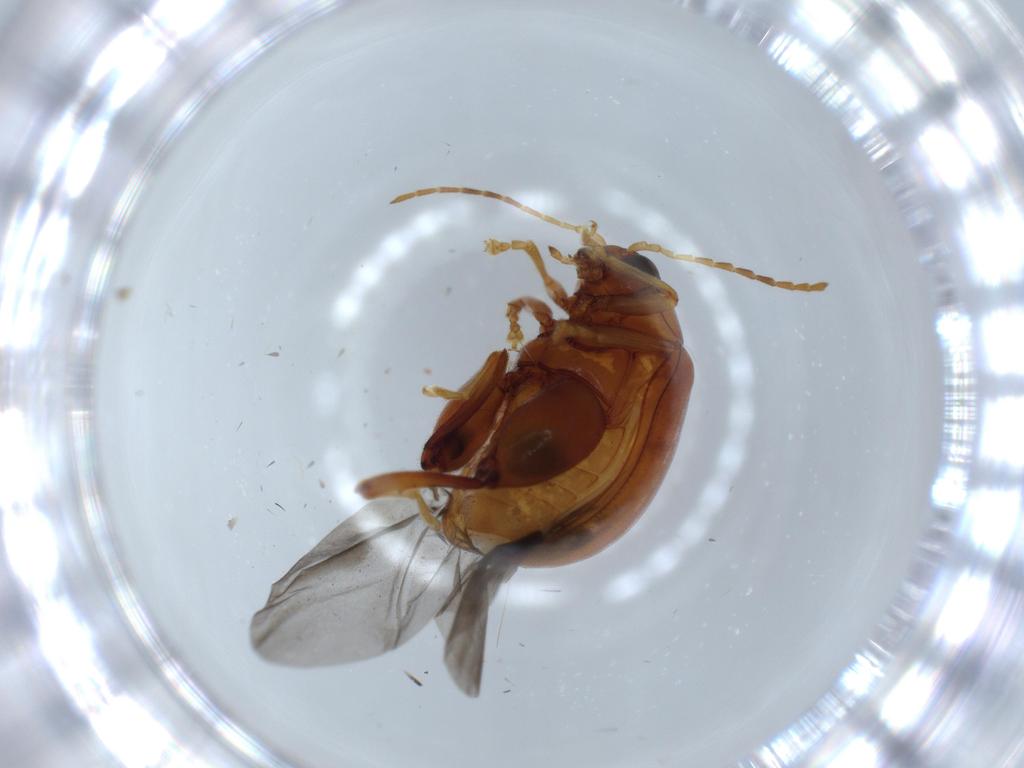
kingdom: Animalia
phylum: Arthropoda
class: Insecta
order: Coleoptera
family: Chrysomelidae
